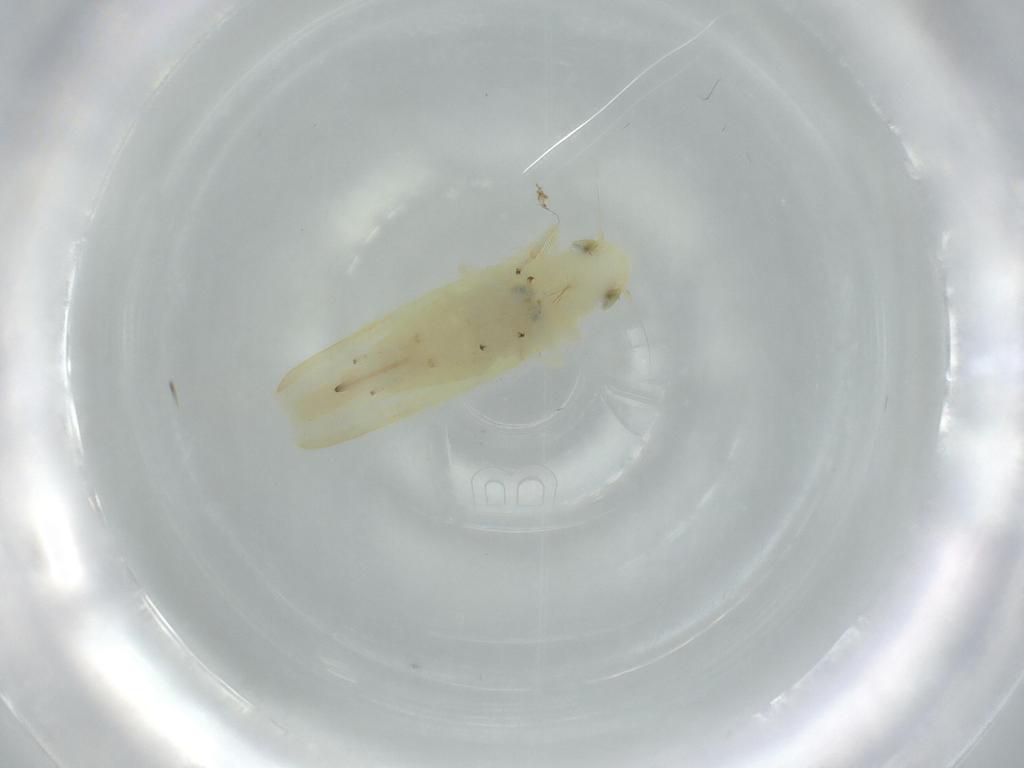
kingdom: Animalia
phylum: Arthropoda
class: Insecta
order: Hemiptera
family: Cicadellidae
